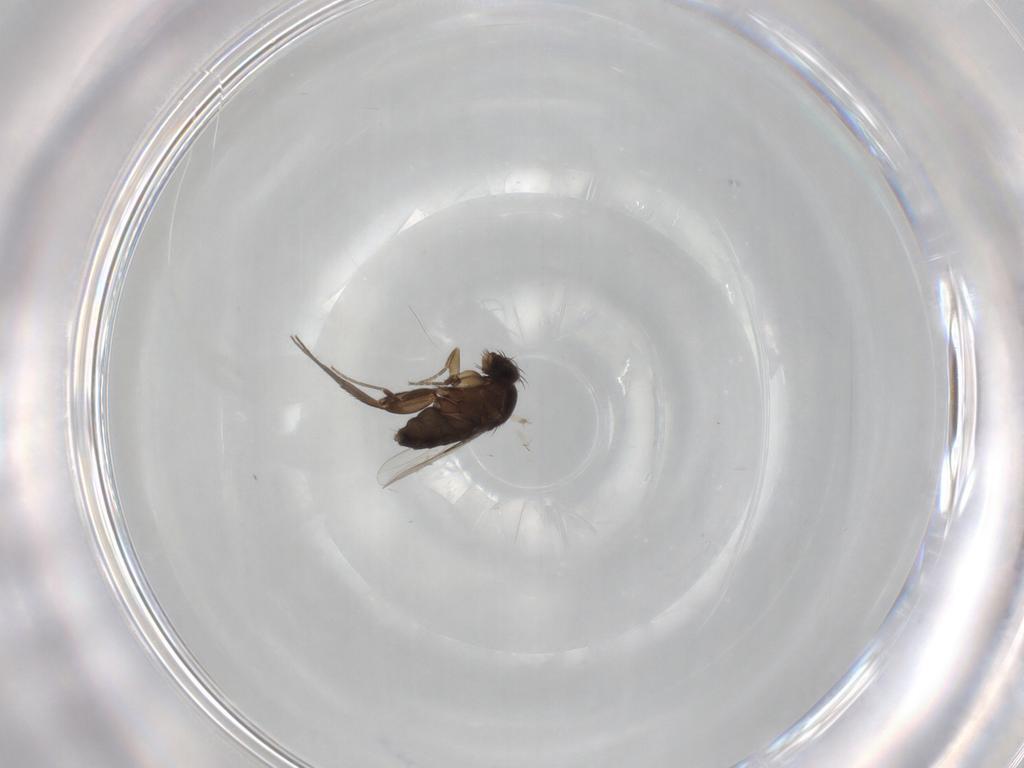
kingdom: Animalia
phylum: Arthropoda
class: Insecta
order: Diptera
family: Phoridae
